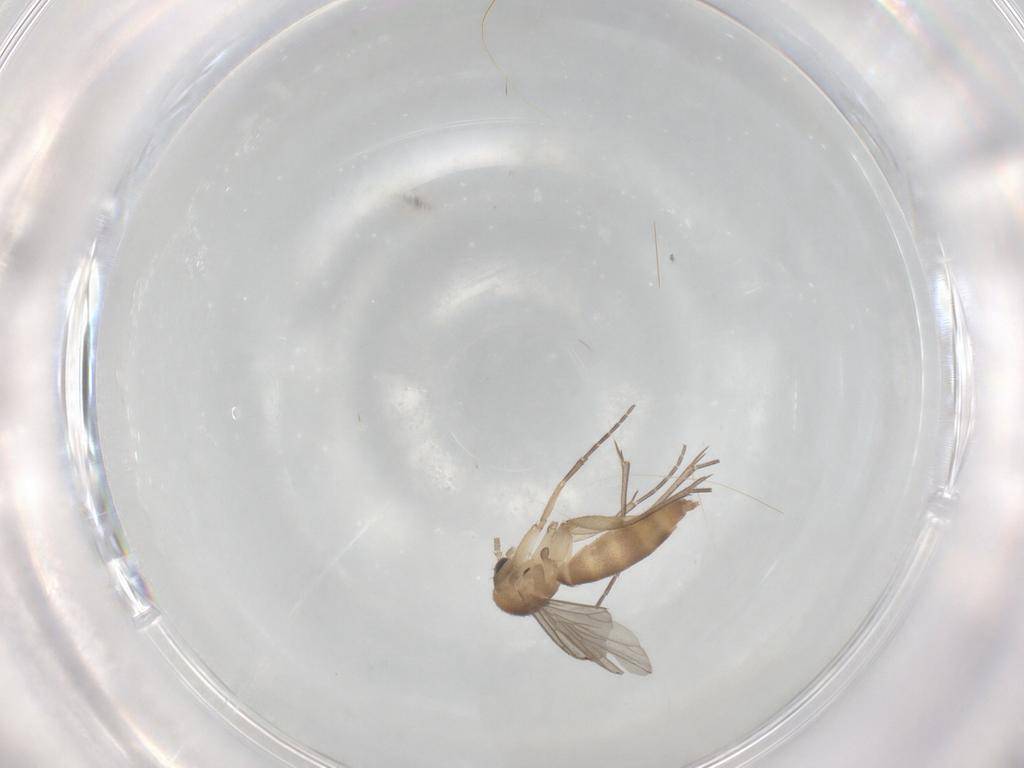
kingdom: Animalia
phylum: Arthropoda
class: Insecta
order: Diptera
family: Mycetophilidae
